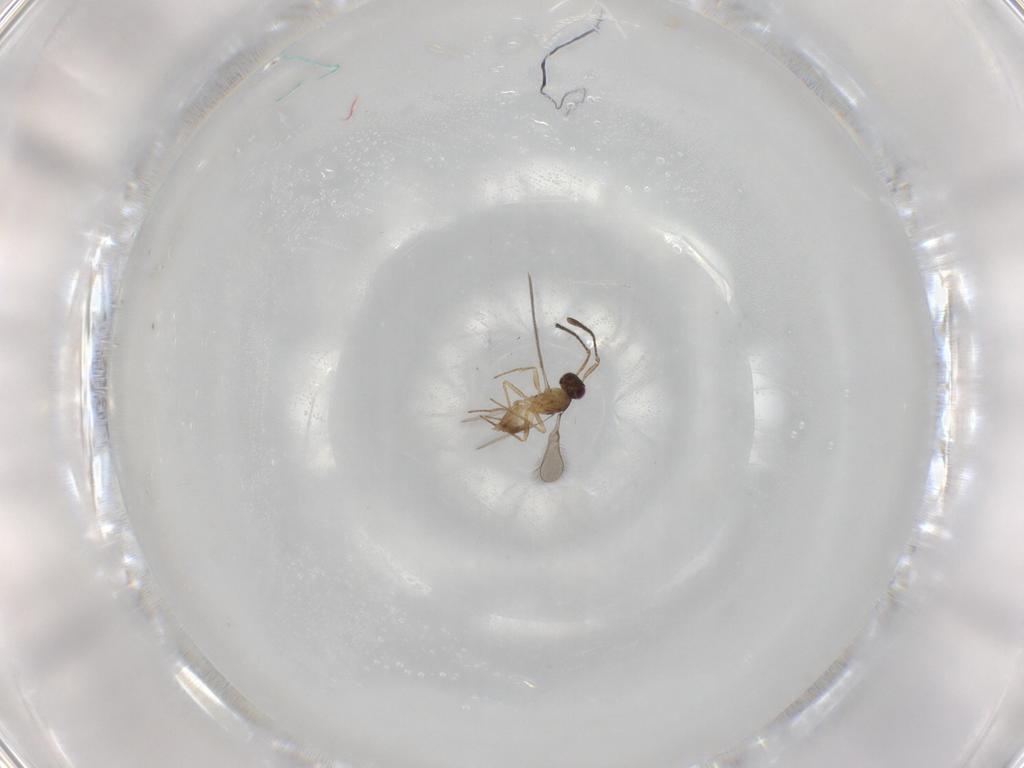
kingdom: Animalia
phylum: Arthropoda
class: Insecta
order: Hymenoptera
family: Mymaridae
